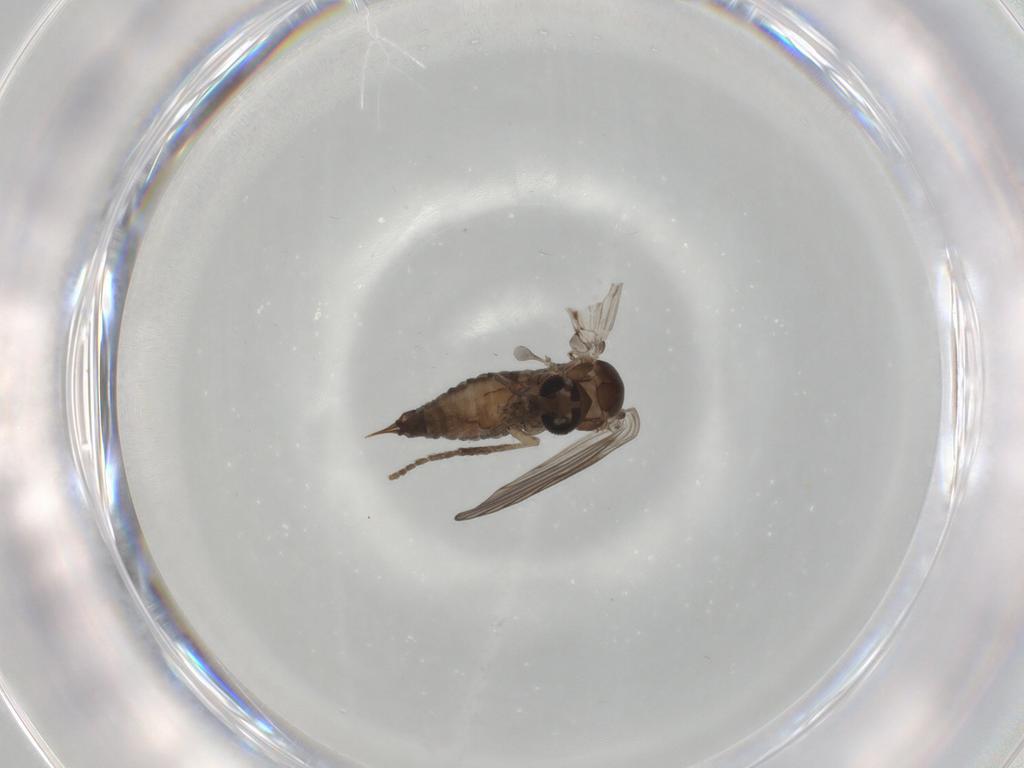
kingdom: Animalia
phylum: Arthropoda
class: Insecta
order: Diptera
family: Psychodidae
